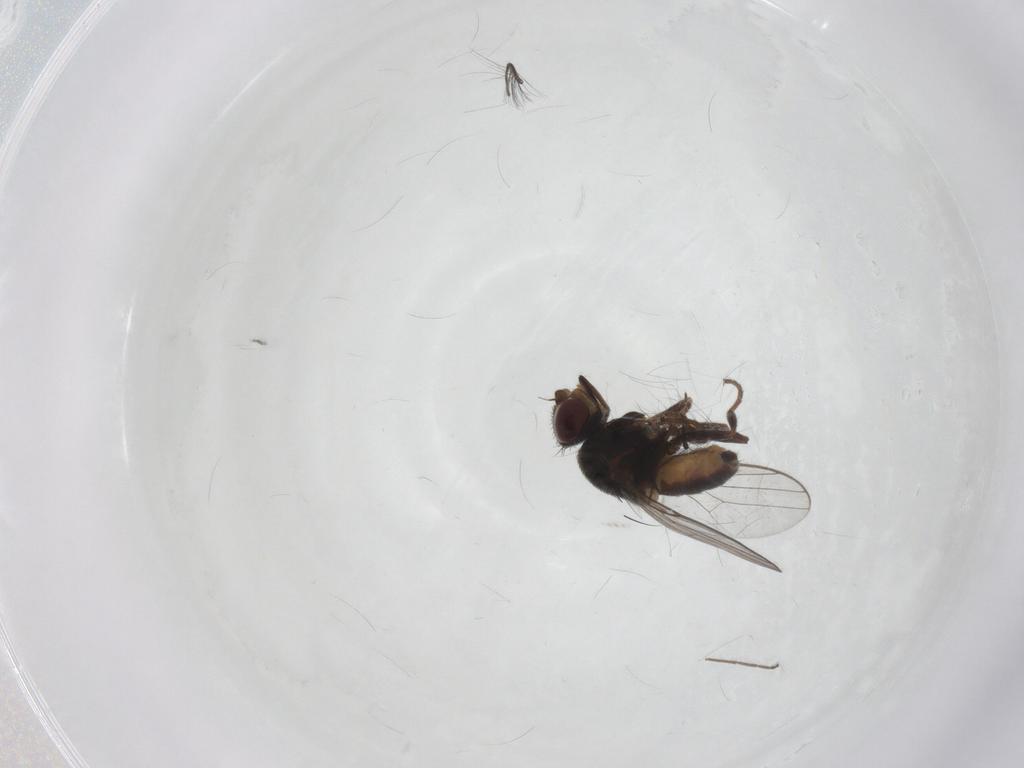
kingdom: Animalia
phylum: Arthropoda
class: Insecta
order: Diptera
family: Chloropidae
